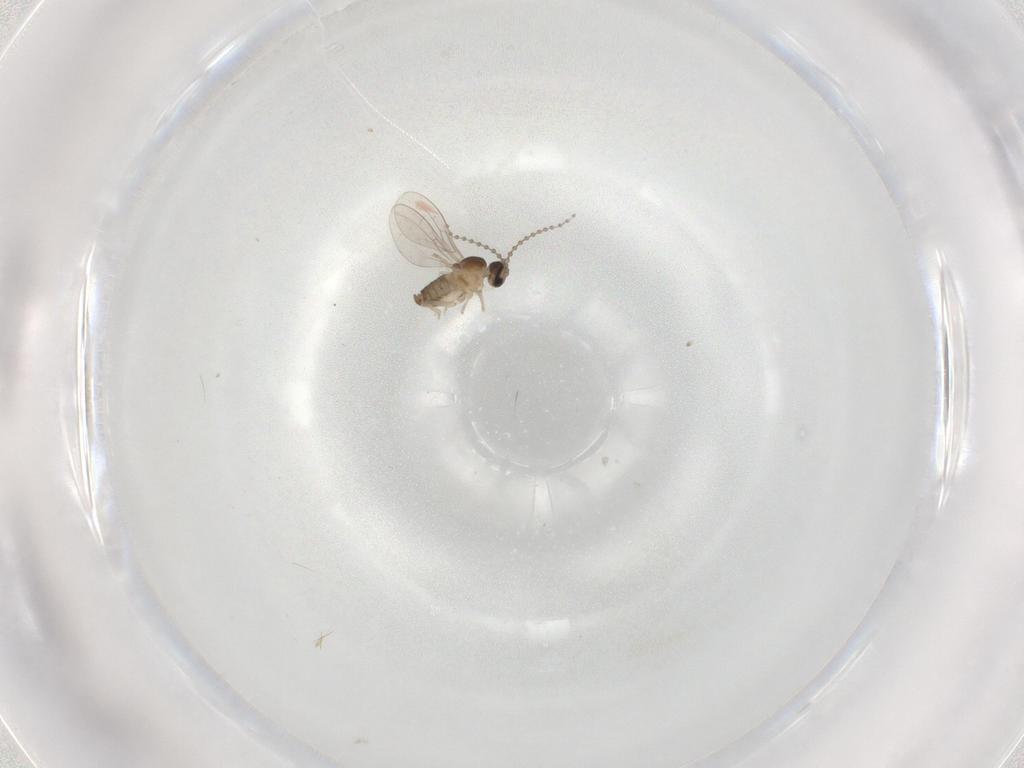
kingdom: Animalia
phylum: Arthropoda
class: Insecta
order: Diptera
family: Cecidomyiidae
